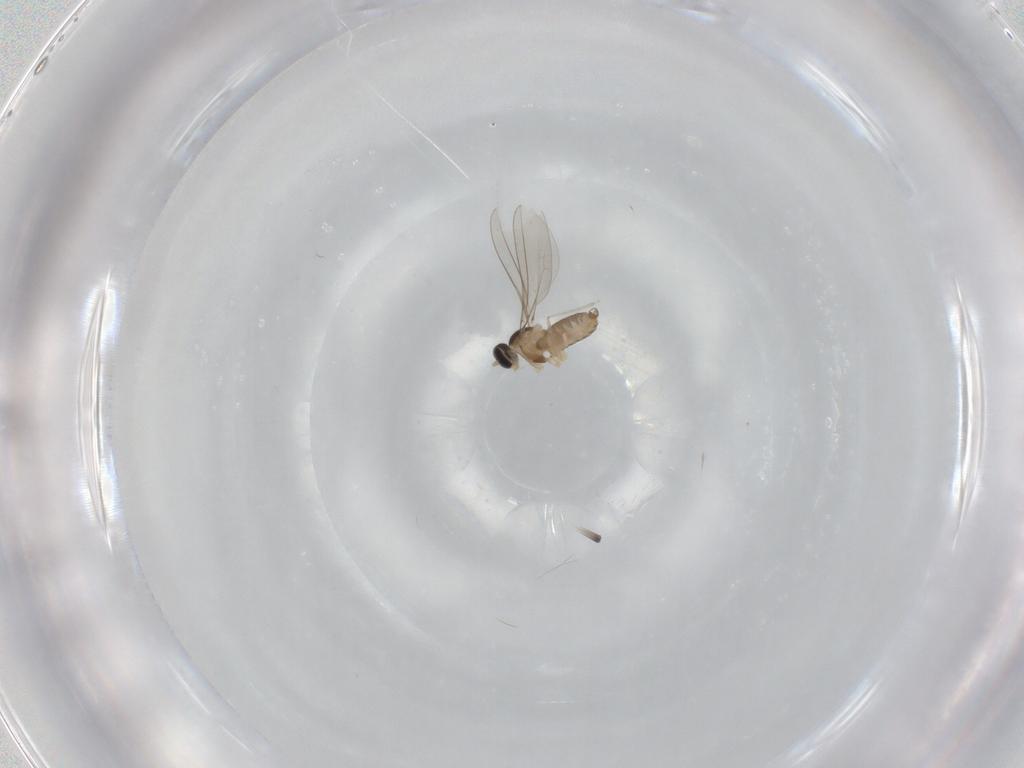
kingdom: Animalia
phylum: Arthropoda
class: Insecta
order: Diptera
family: Cecidomyiidae
